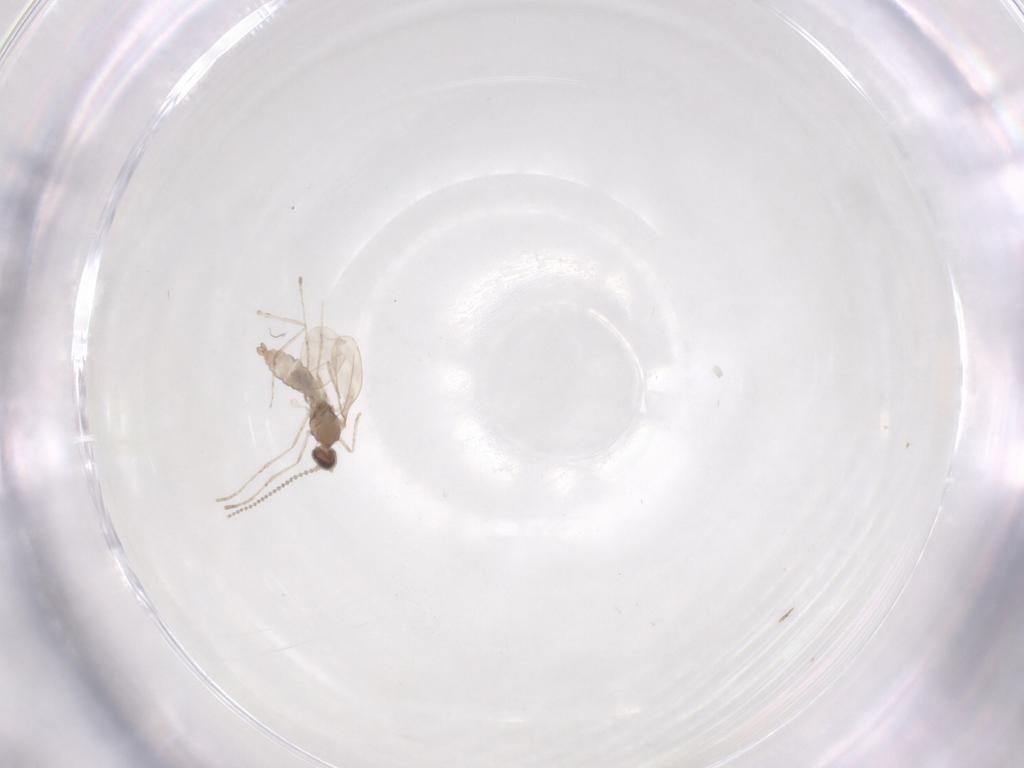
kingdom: Animalia
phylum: Arthropoda
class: Insecta
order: Diptera
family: Cecidomyiidae
